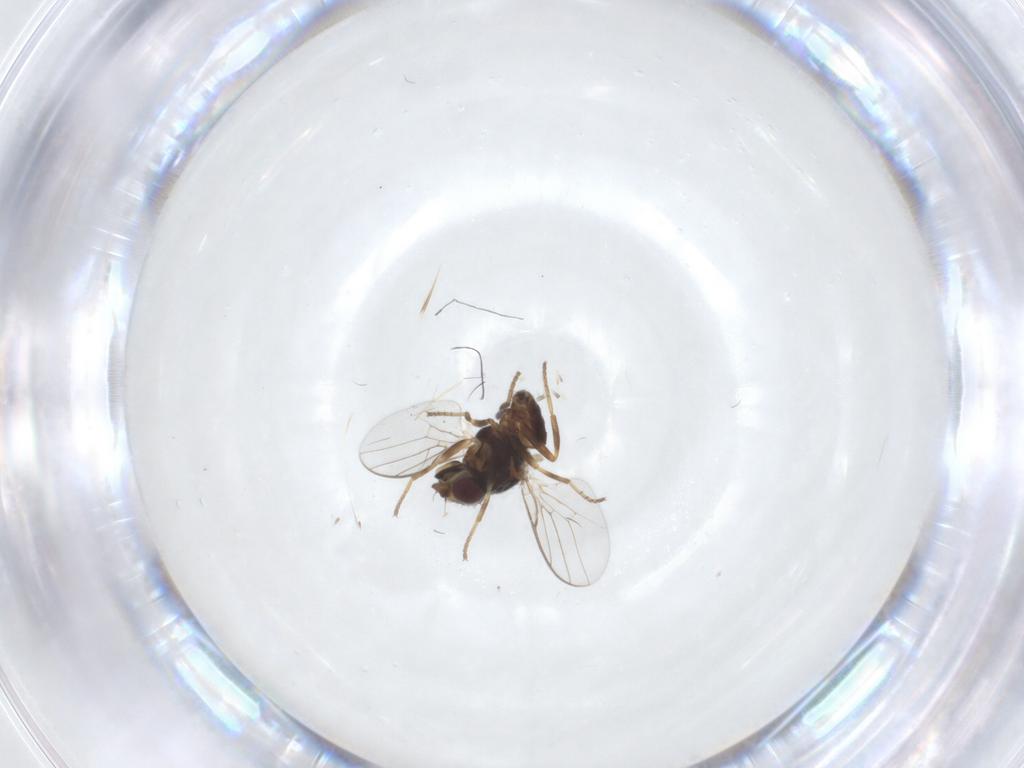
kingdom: Animalia
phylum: Arthropoda
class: Insecta
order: Diptera
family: Chloropidae
